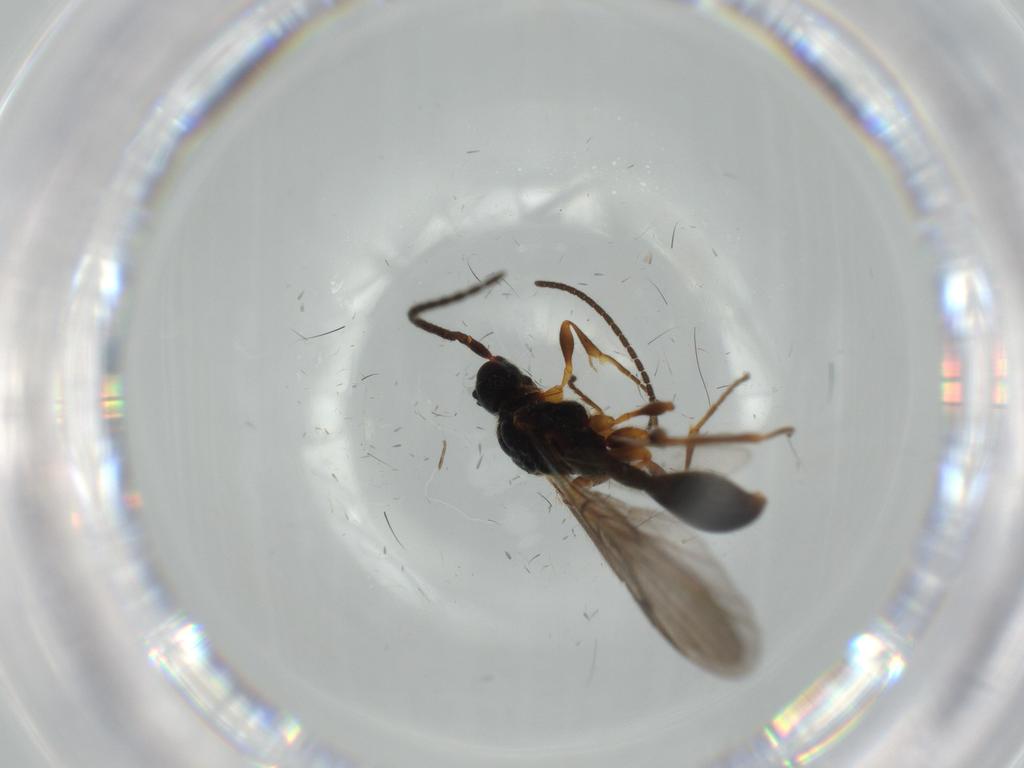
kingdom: Animalia
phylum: Arthropoda
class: Insecta
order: Hymenoptera
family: Diapriidae
